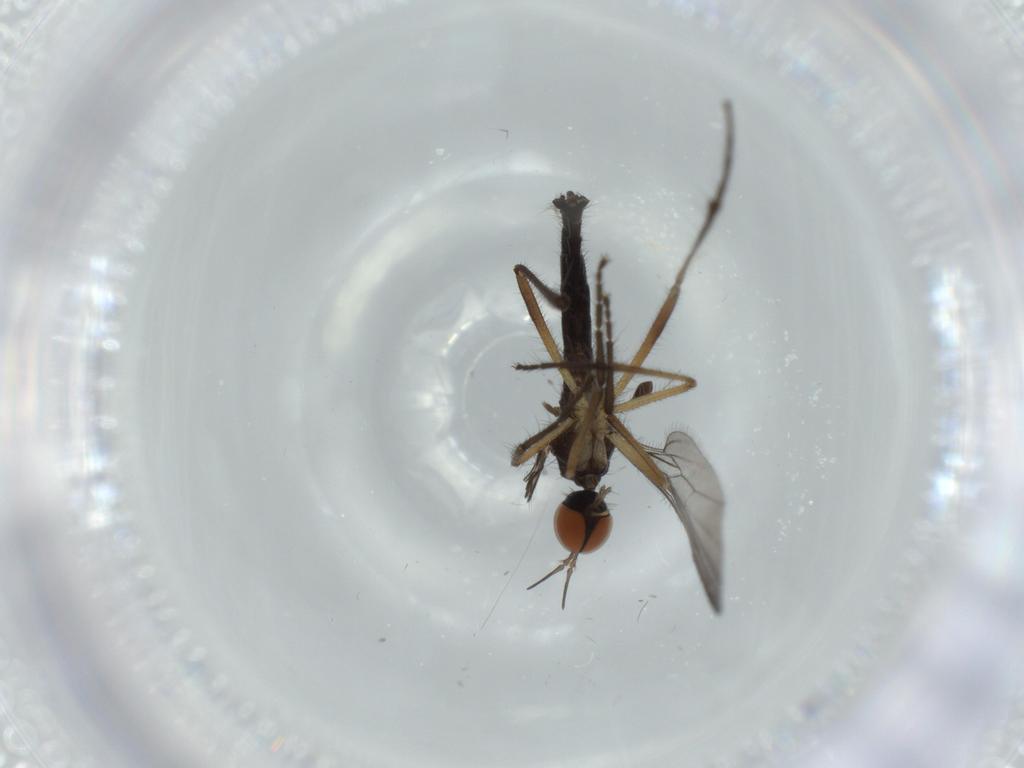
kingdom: Animalia
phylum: Arthropoda
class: Insecta
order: Diptera
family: Empididae
